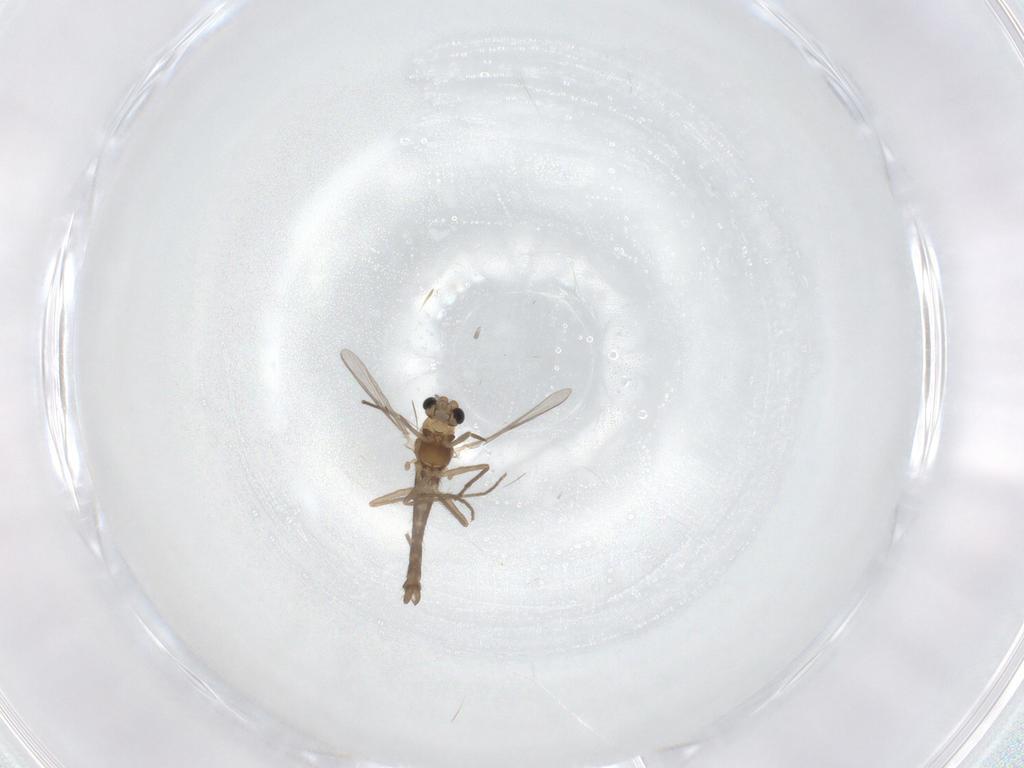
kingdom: Animalia
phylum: Arthropoda
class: Insecta
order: Diptera
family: Chironomidae
